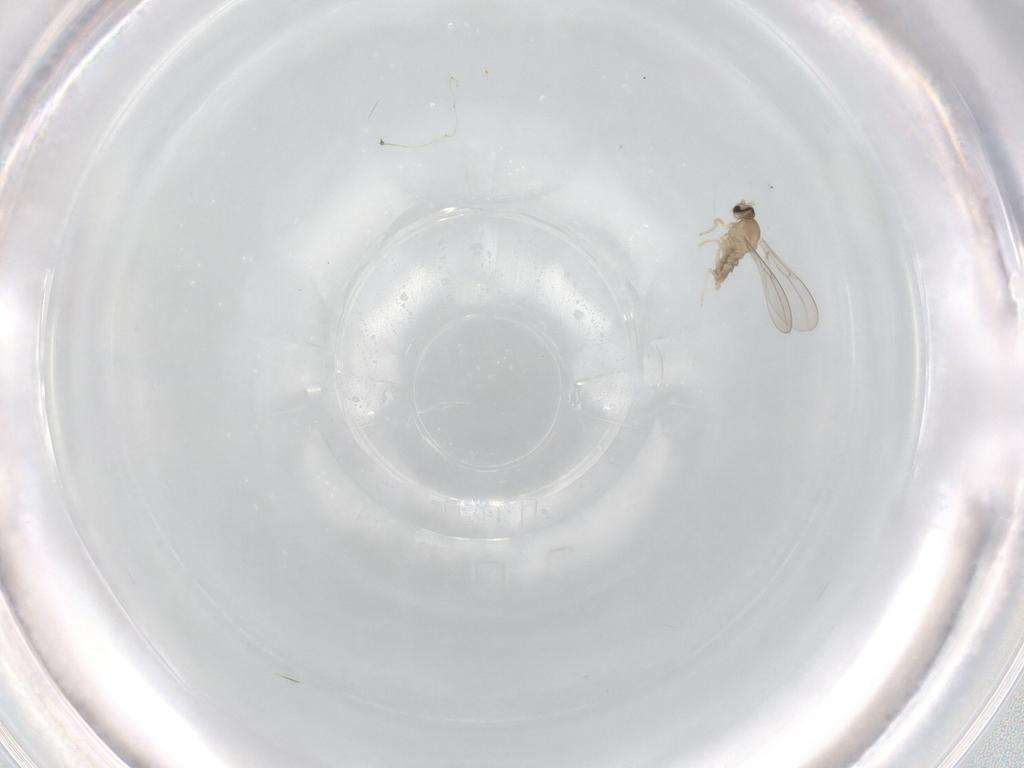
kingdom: Animalia
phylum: Arthropoda
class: Insecta
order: Diptera
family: Cecidomyiidae
